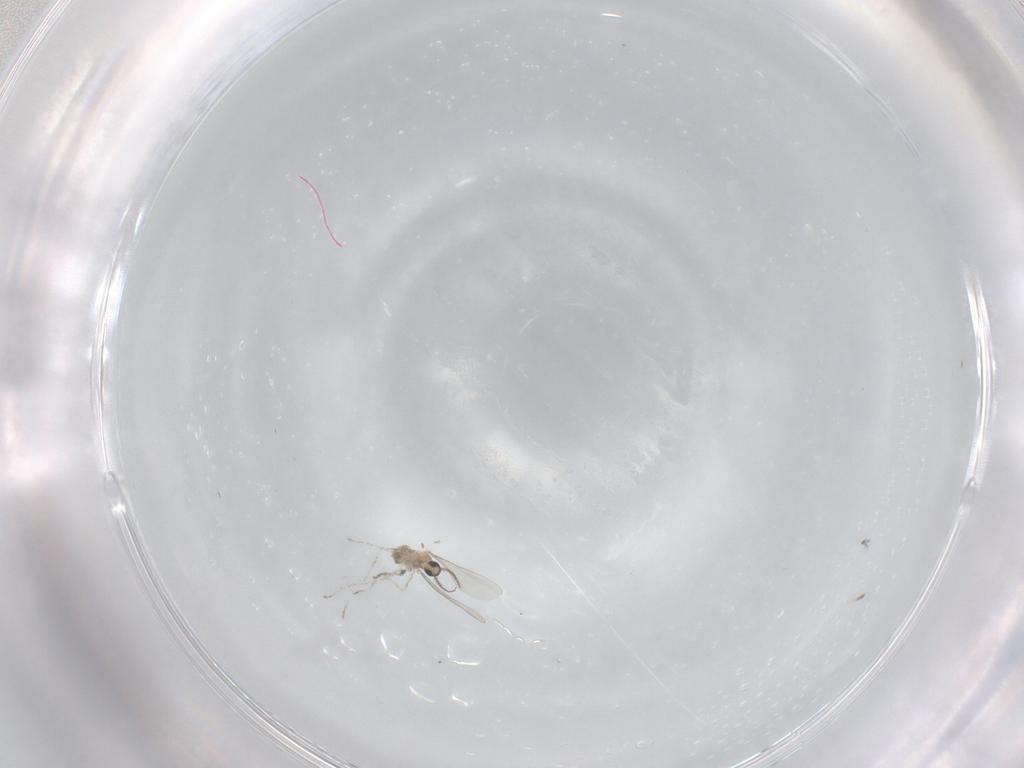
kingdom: Animalia
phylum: Arthropoda
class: Insecta
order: Diptera
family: Cecidomyiidae
